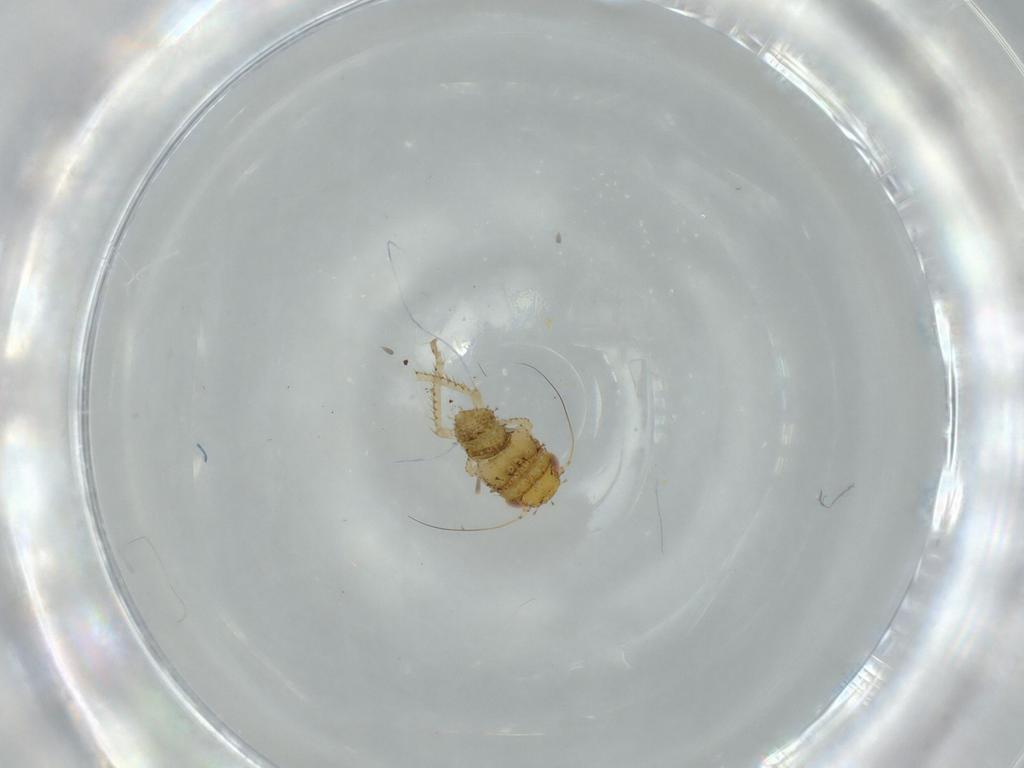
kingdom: Animalia
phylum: Arthropoda
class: Insecta
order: Hemiptera
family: Cicadellidae
